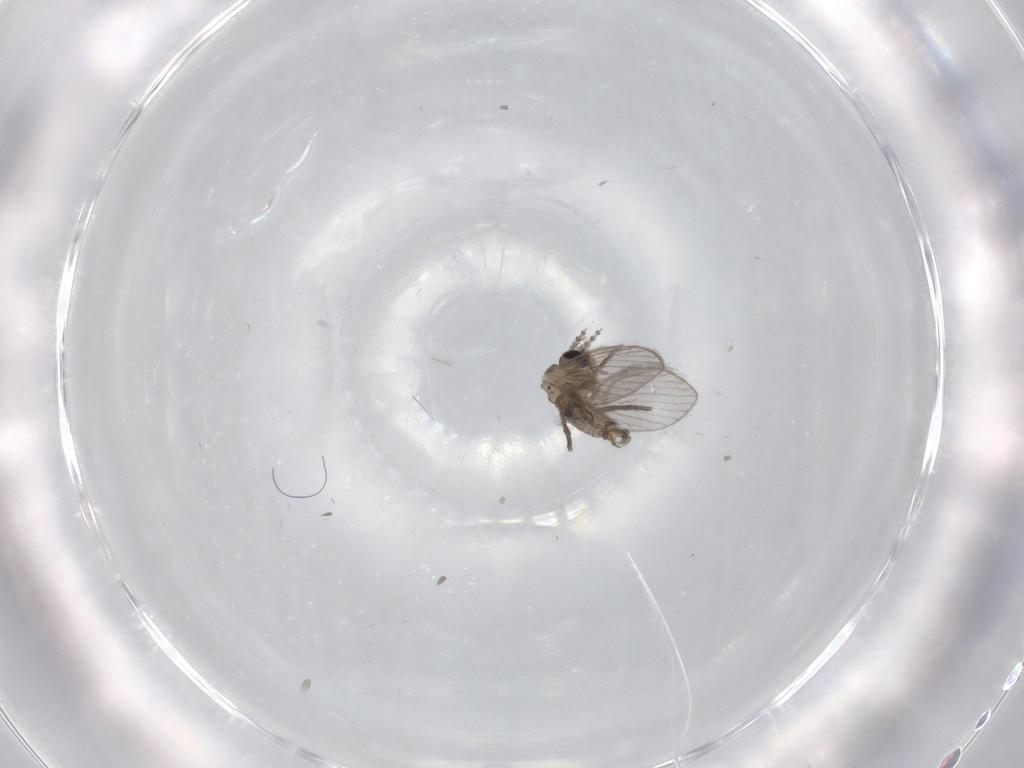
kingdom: Animalia
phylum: Arthropoda
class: Insecta
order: Diptera
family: Psychodidae
